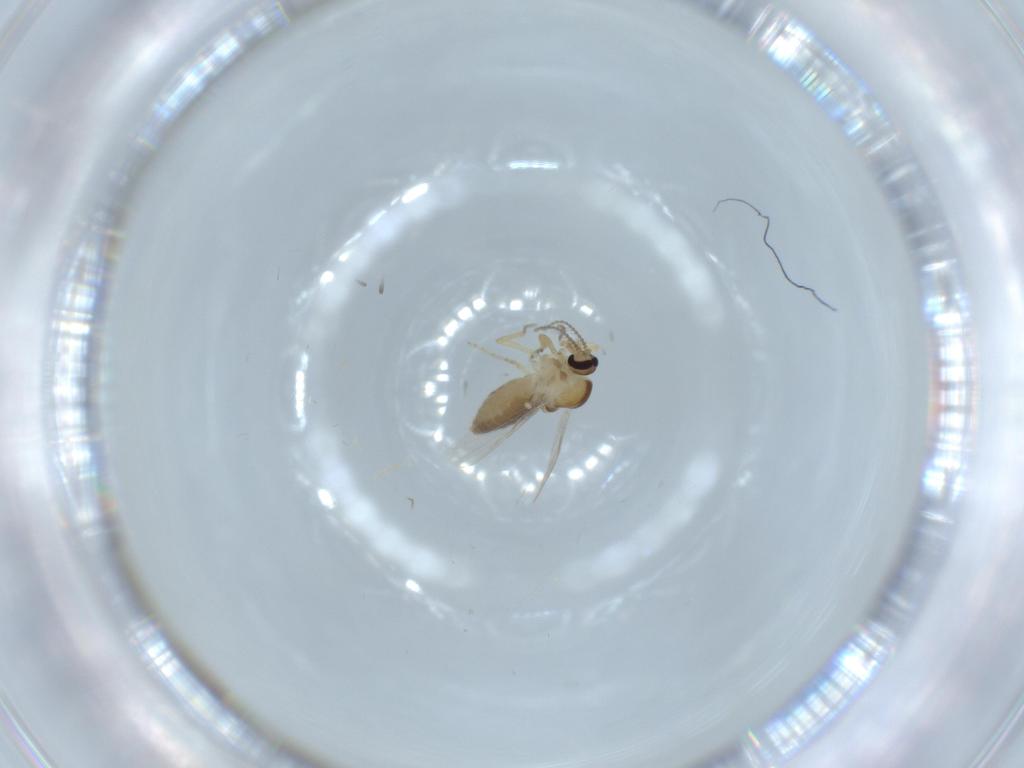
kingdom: Animalia
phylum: Arthropoda
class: Insecta
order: Diptera
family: Ceratopogonidae
